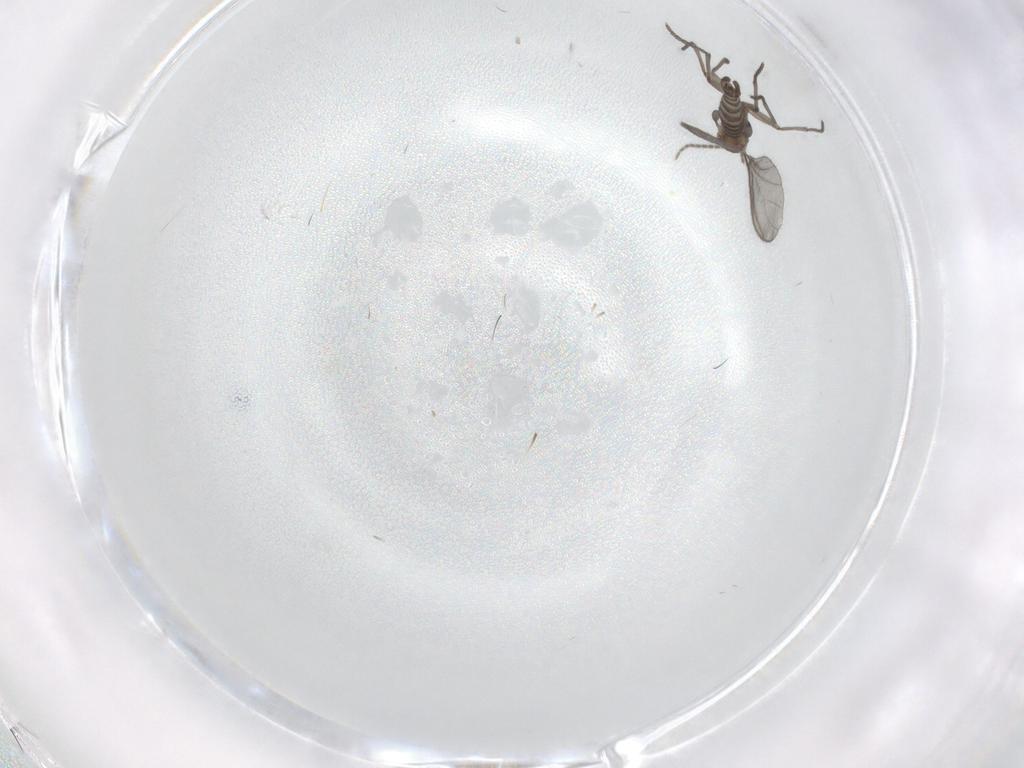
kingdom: Animalia
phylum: Arthropoda
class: Insecta
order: Diptera
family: Sciaridae
